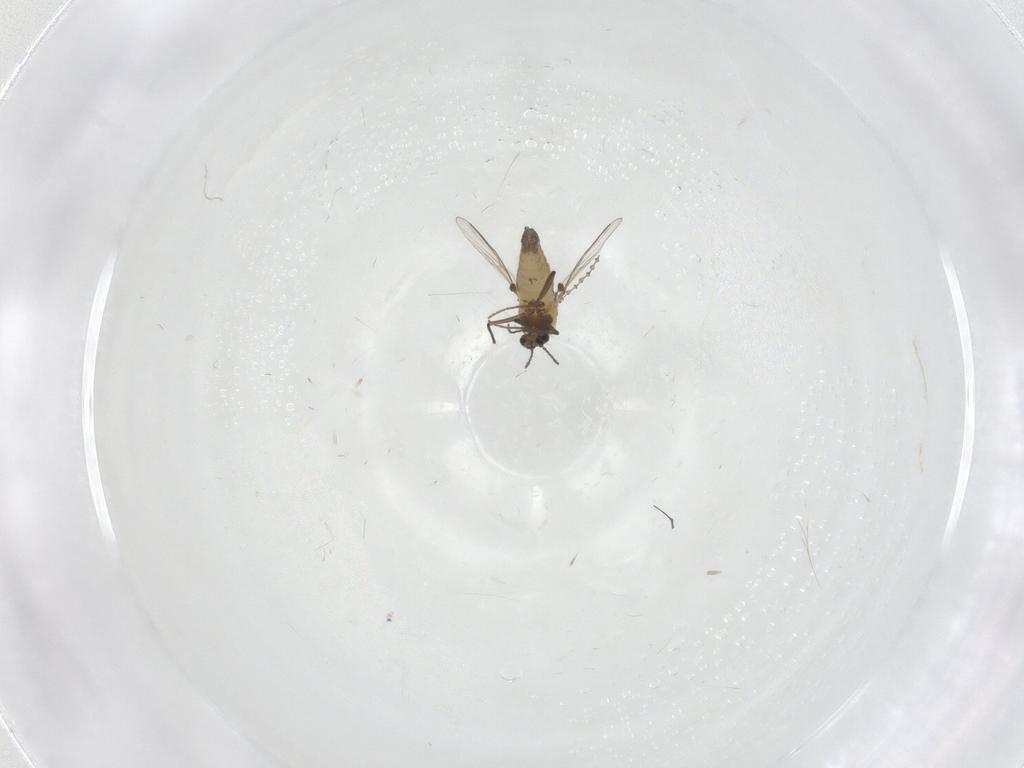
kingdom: Animalia
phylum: Arthropoda
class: Insecta
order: Diptera
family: Chironomidae
